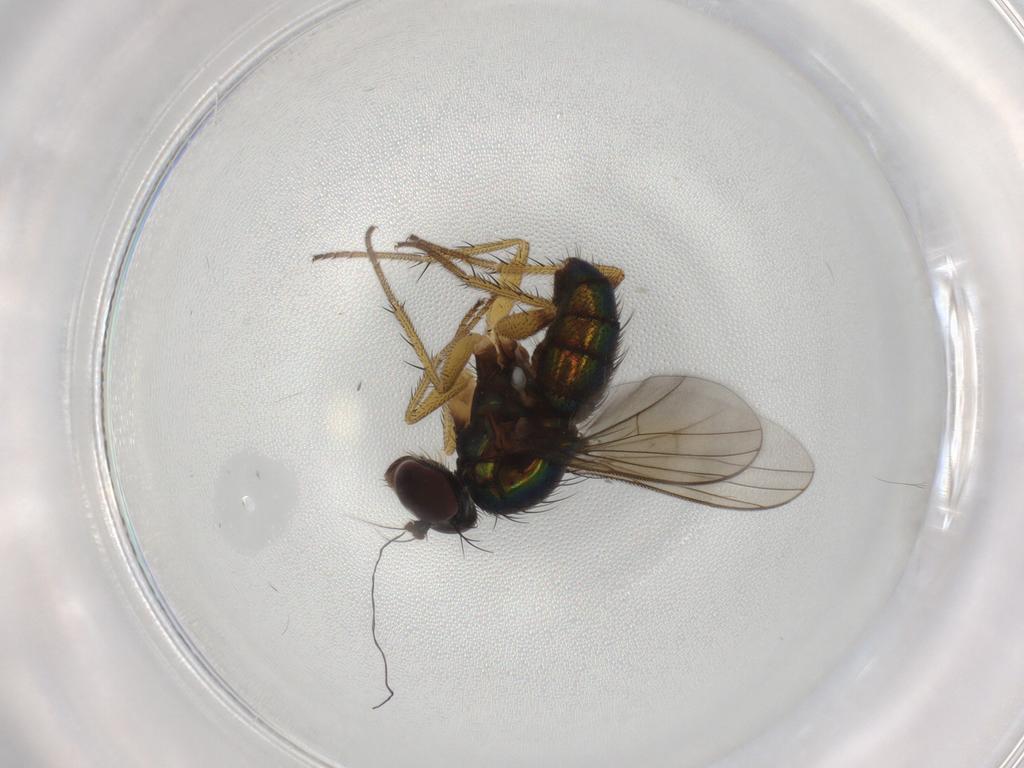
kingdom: Animalia
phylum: Arthropoda
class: Insecta
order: Diptera
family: Dolichopodidae
